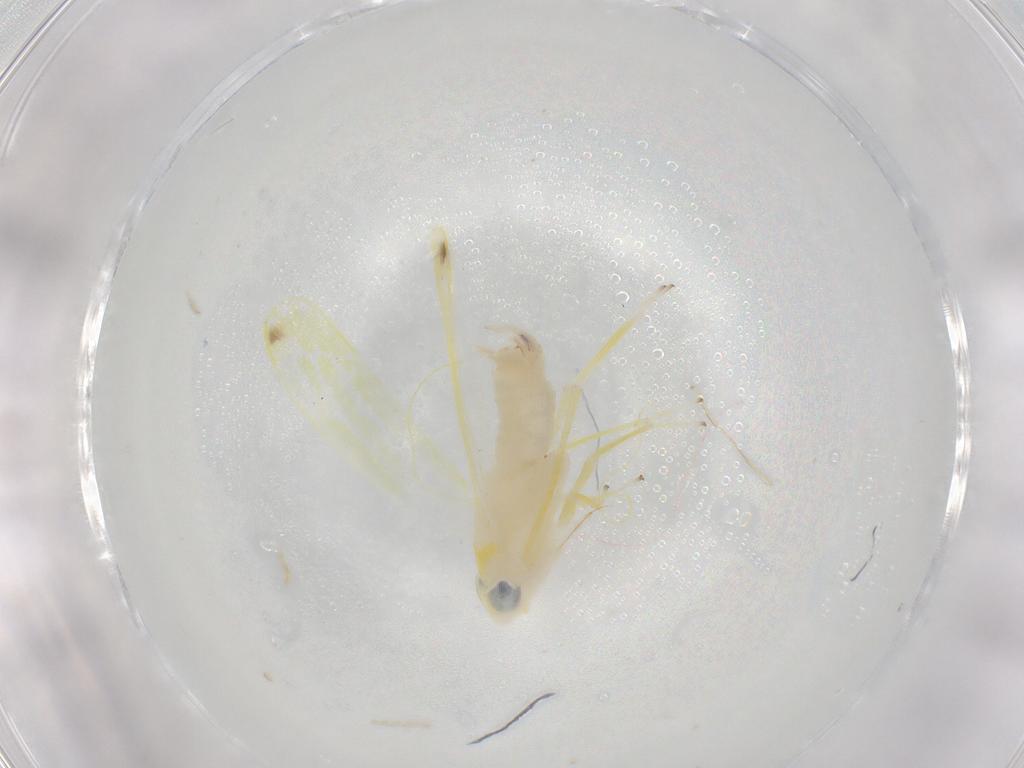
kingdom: Animalia
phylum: Arthropoda
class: Insecta
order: Hemiptera
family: Cicadellidae
